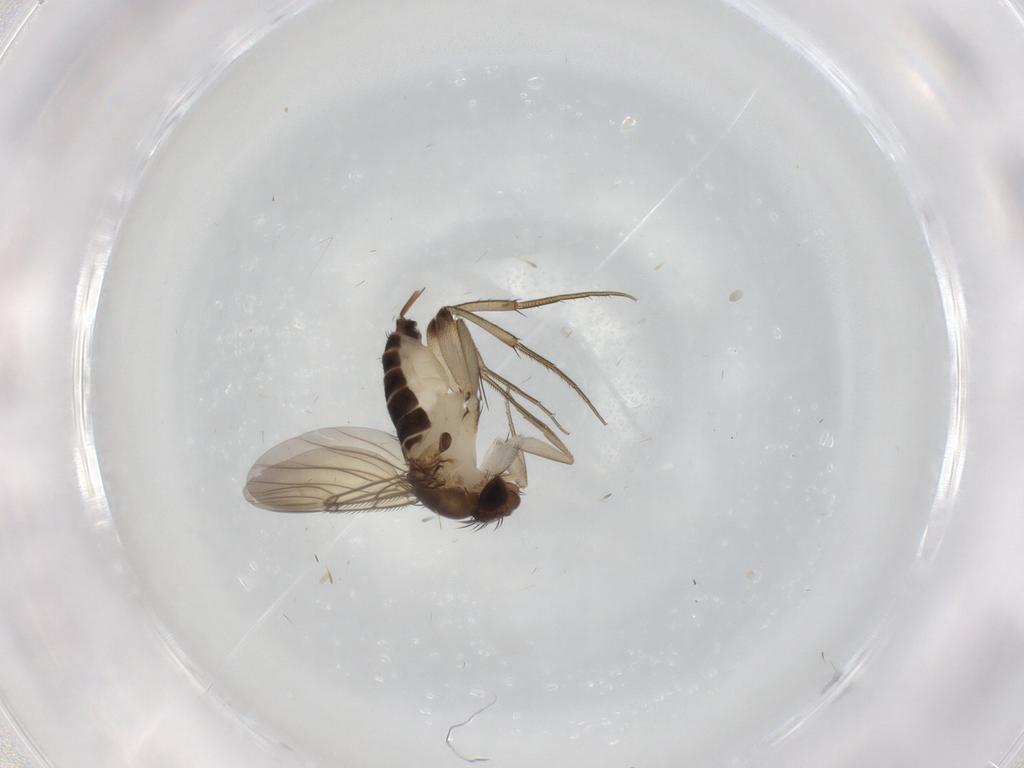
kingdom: Animalia
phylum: Arthropoda
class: Insecta
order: Diptera
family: Phoridae
